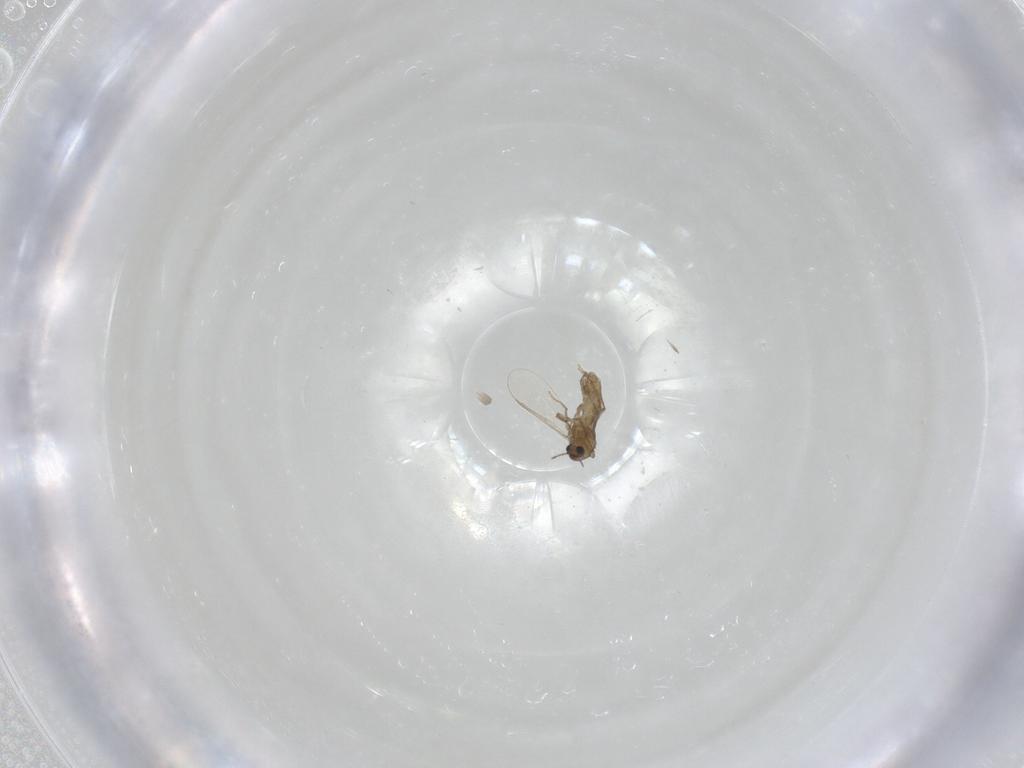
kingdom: Animalia
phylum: Arthropoda
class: Insecta
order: Diptera
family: Chironomidae
